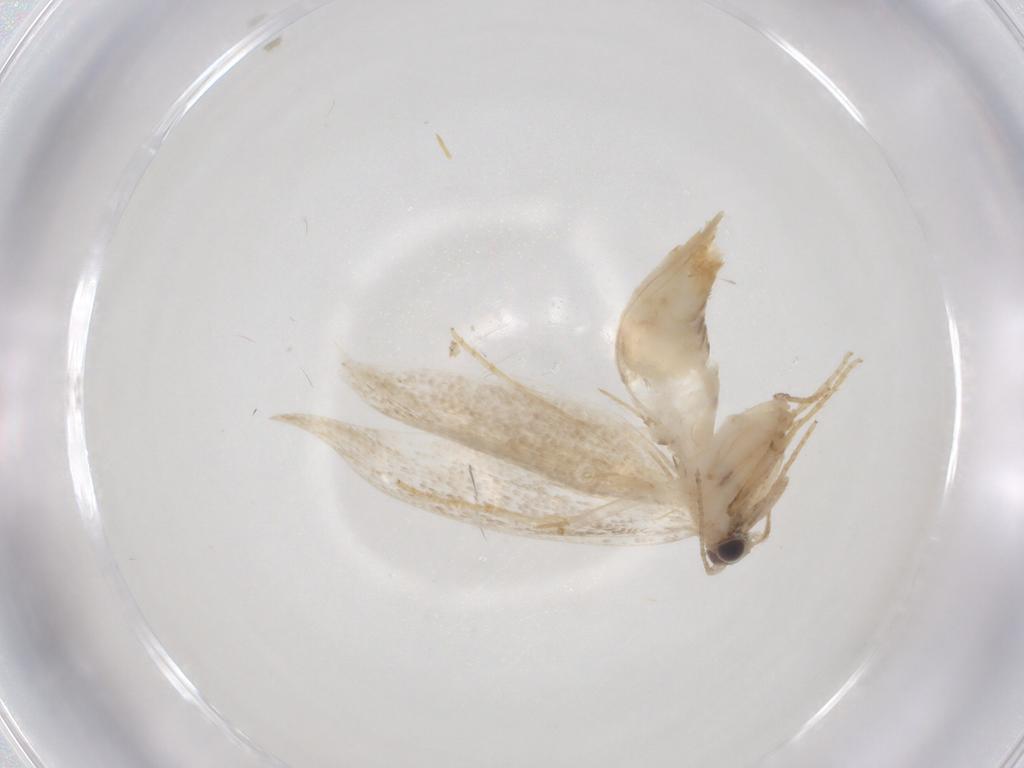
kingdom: Animalia
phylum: Arthropoda
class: Insecta
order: Lepidoptera
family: Nepticulidae
